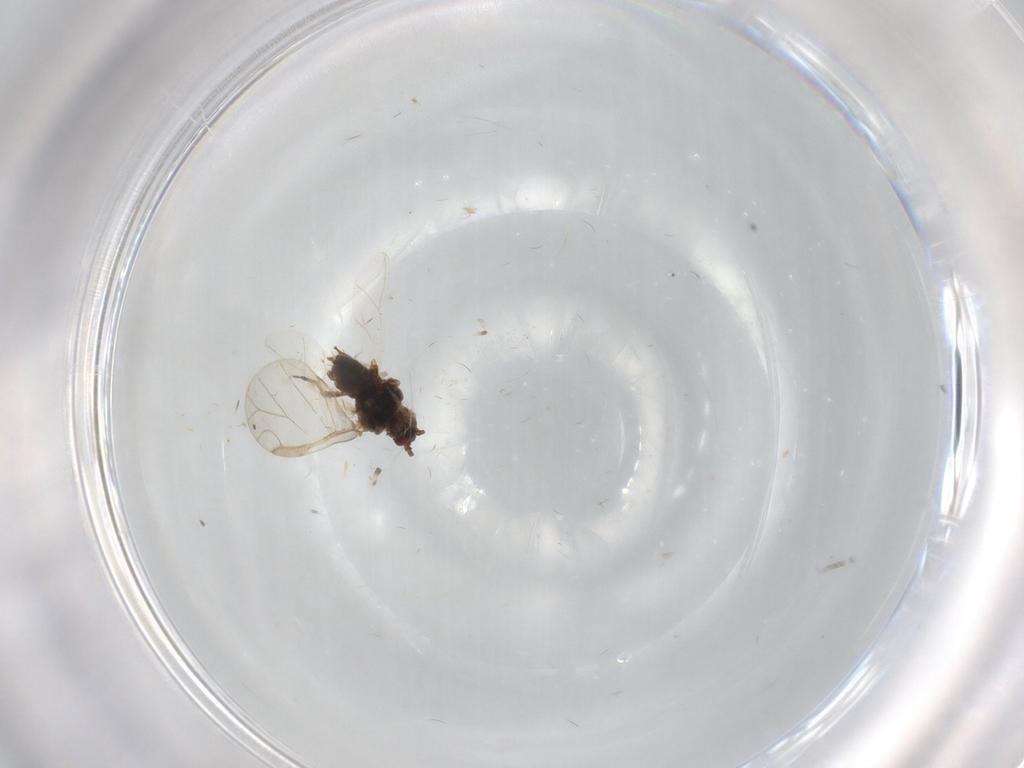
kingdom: Animalia
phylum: Arthropoda
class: Insecta
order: Hemiptera
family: Aphididae
